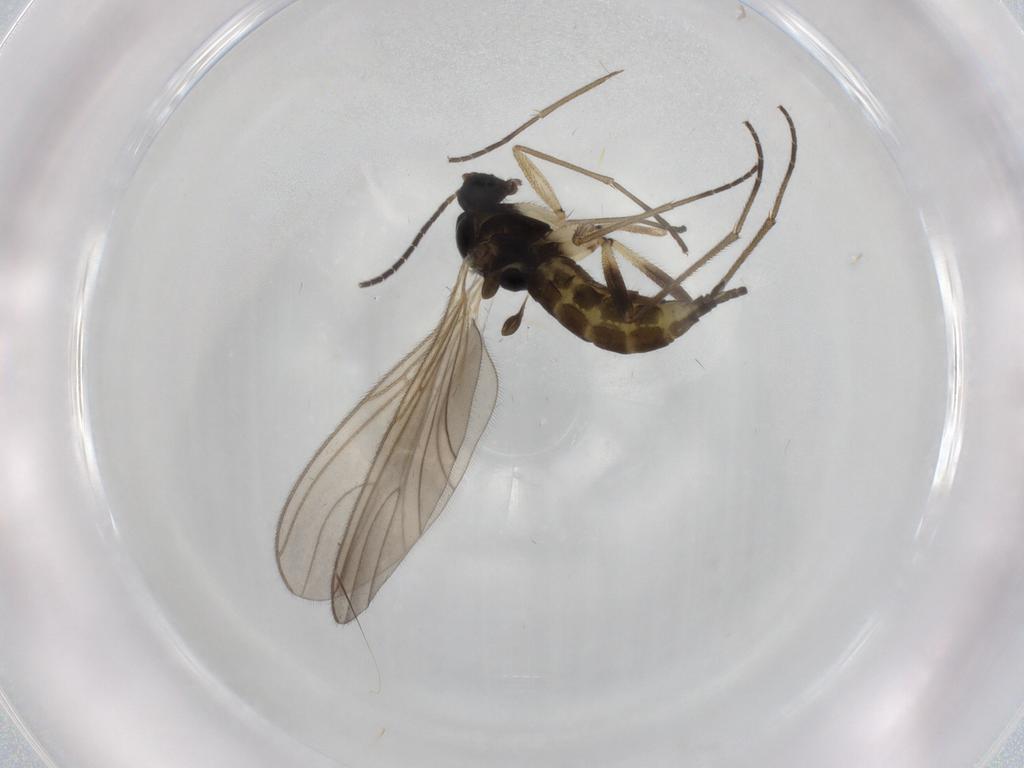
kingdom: Animalia
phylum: Arthropoda
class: Insecta
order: Diptera
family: Sciaridae
